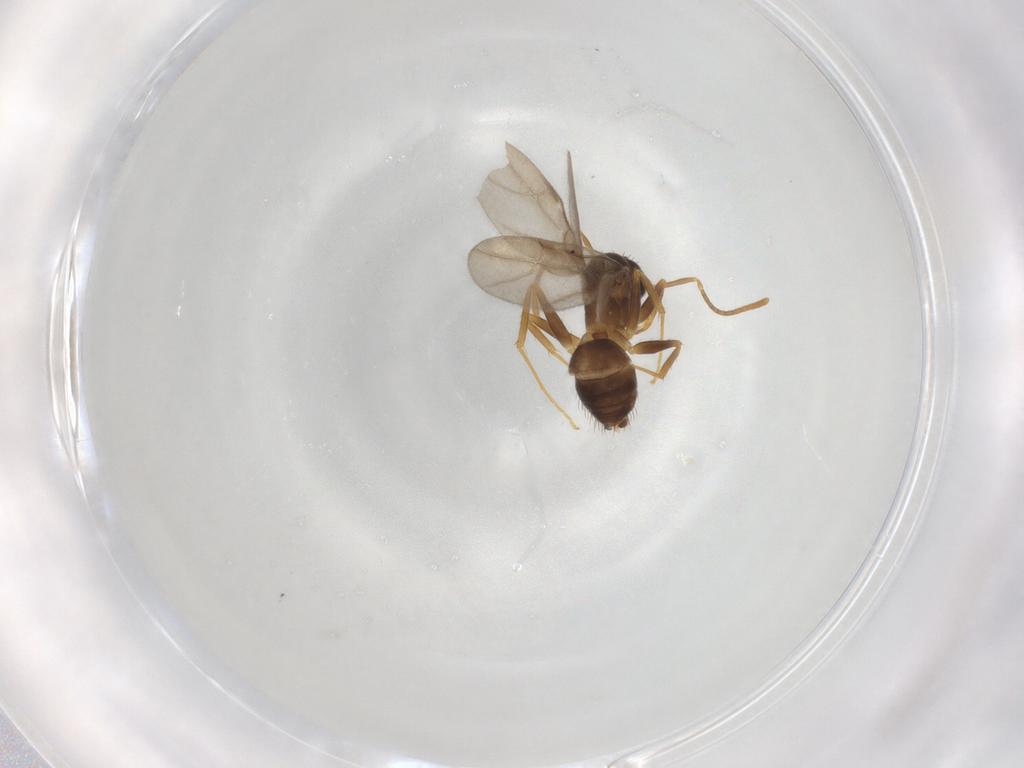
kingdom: Animalia
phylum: Arthropoda
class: Insecta
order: Hymenoptera
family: Formicidae
